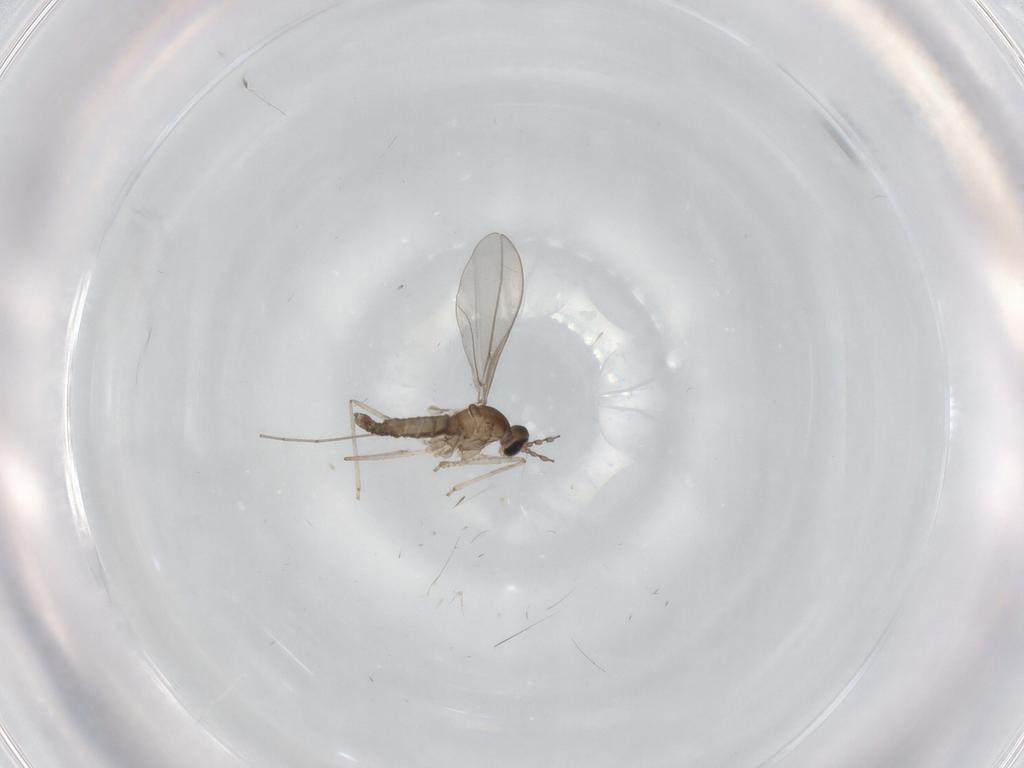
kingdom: Animalia
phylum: Arthropoda
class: Insecta
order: Diptera
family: Cecidomyiidae
